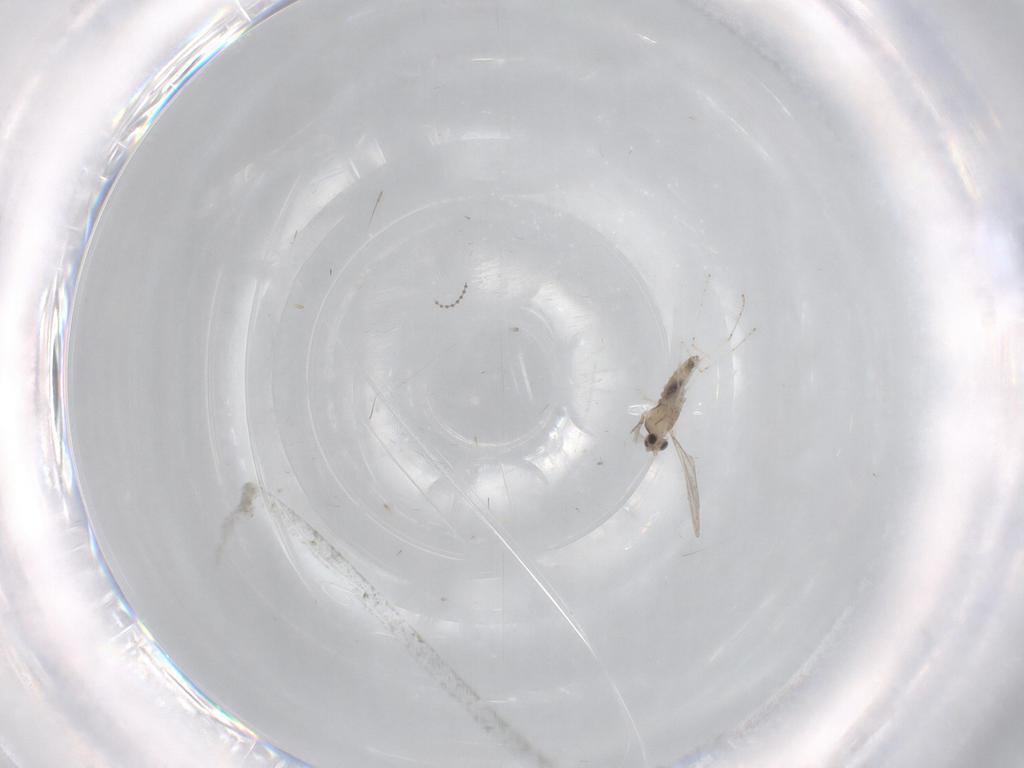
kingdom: Animalia
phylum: Arthropoda
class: Insecta
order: Diptera
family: Cecidomyiidae
